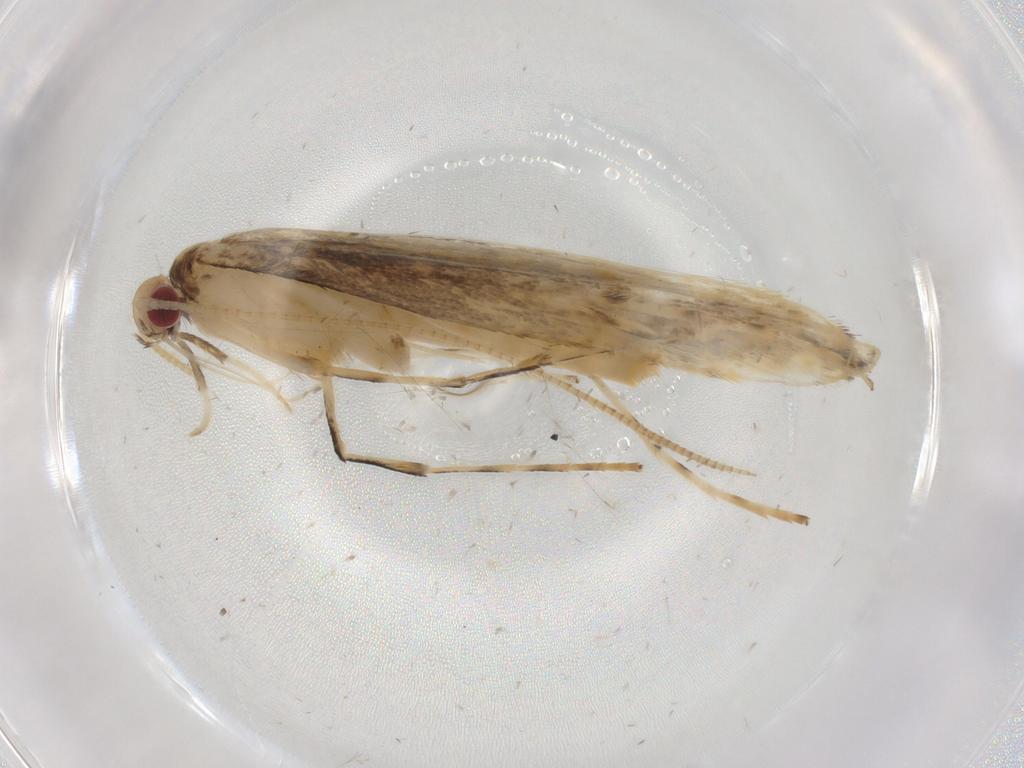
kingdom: Animalia
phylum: Arthropoda
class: Insecta
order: Lepidoptera
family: Gracillariidae
